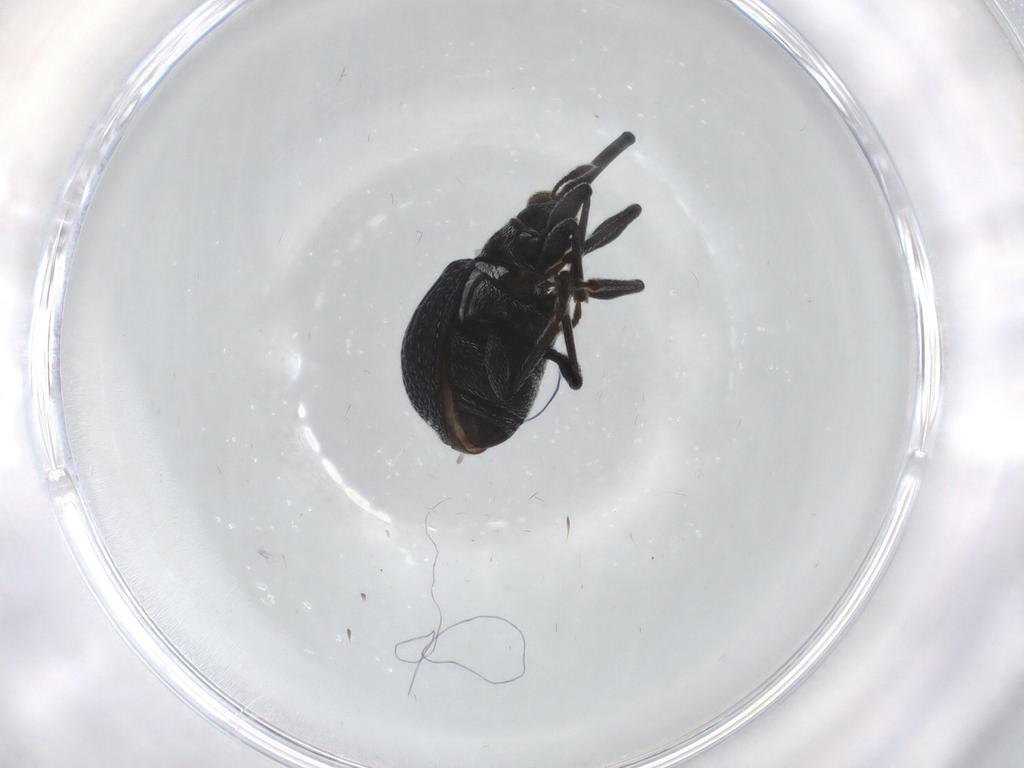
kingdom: Animalia
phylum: Arthropoda
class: Insecta
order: Coleoptera
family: Brentidae
